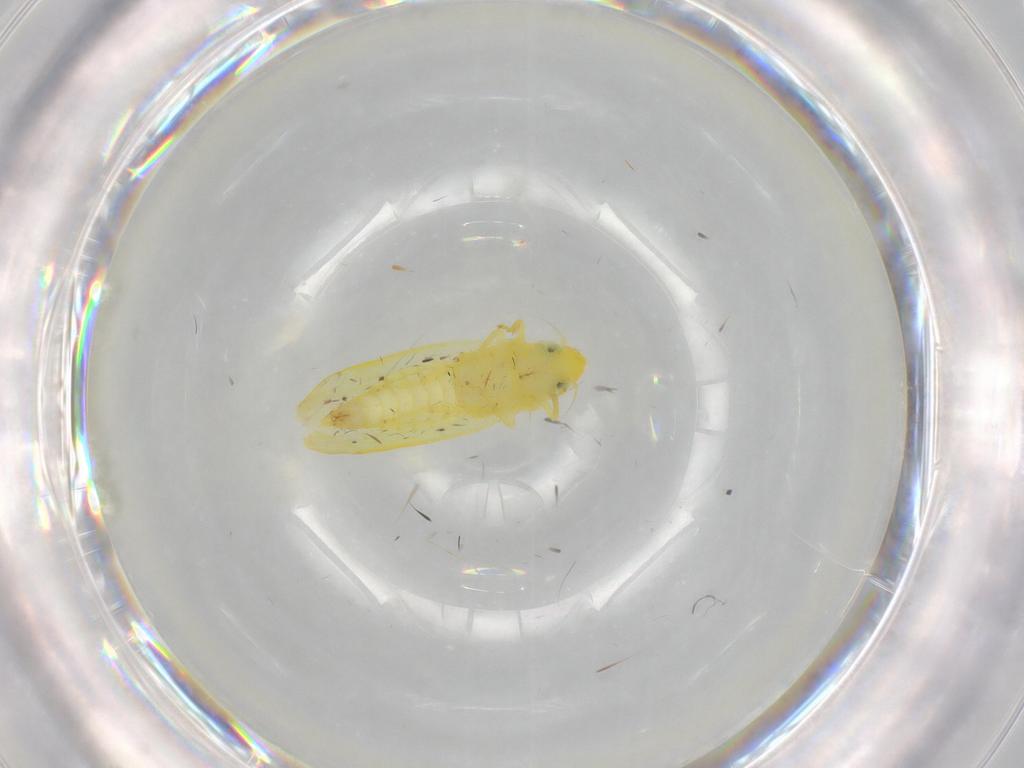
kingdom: Animalia
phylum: Arthropoda
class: Insecta
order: Hemiptera
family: Cicadellidae
